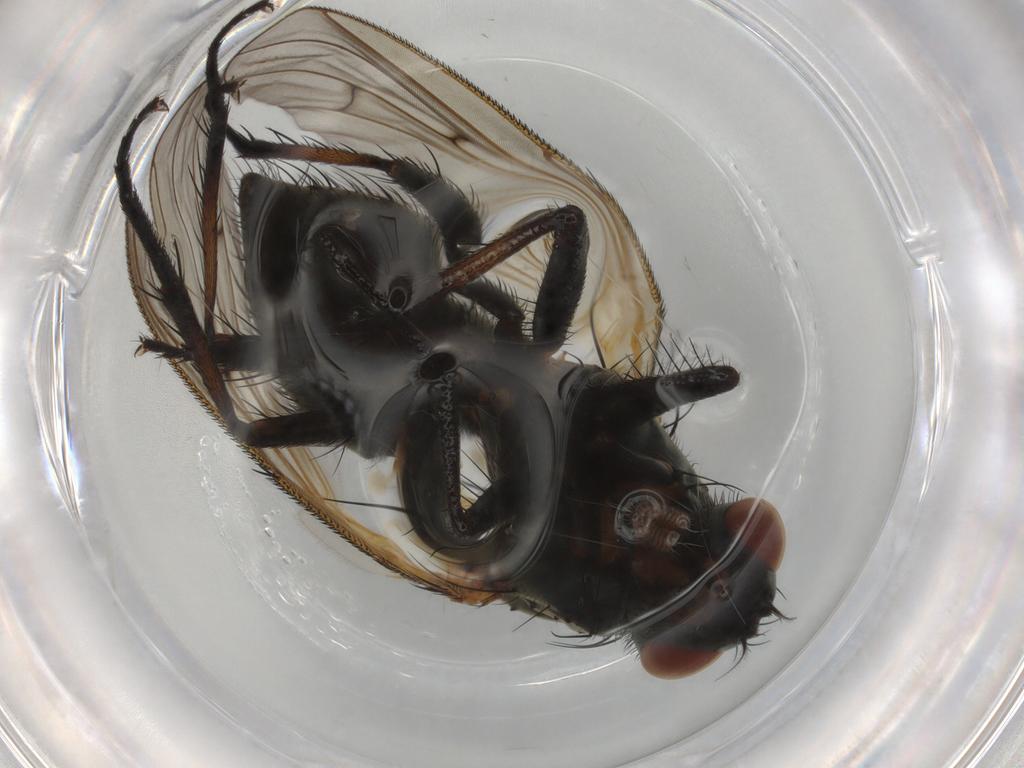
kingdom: Animalia
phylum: Arthropoda
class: Insecta
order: Diptera
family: Anthomyiidae
